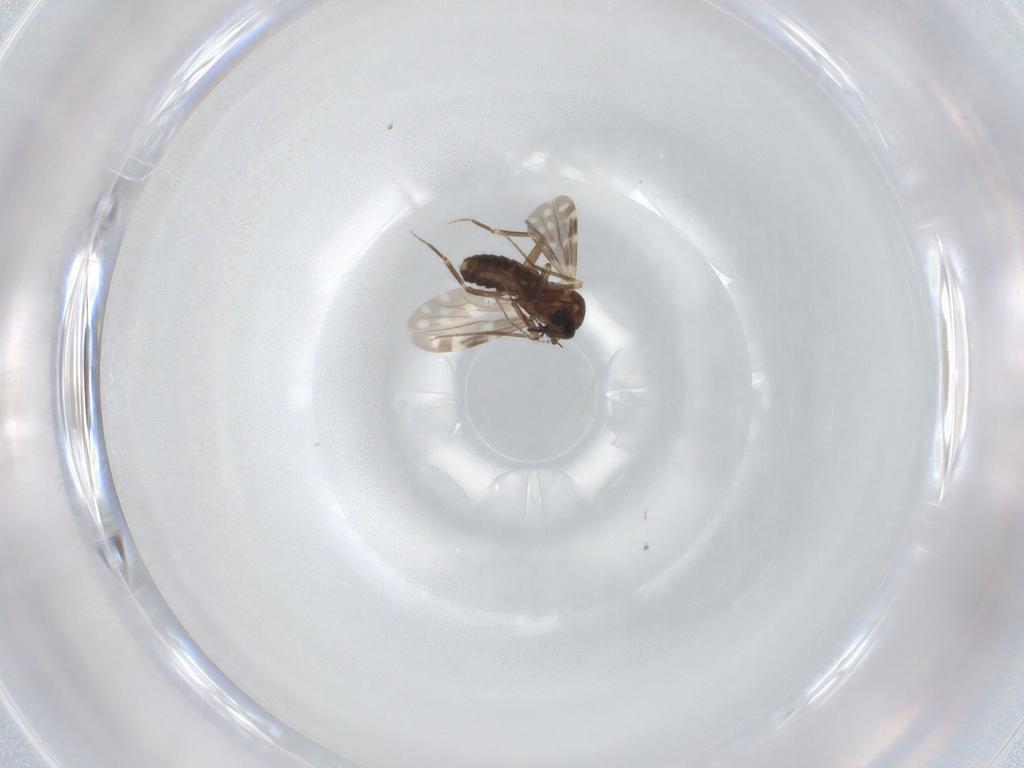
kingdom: Animalia
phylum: Arthropoda
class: Insecta
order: Diptera
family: Ceratopogonidae
